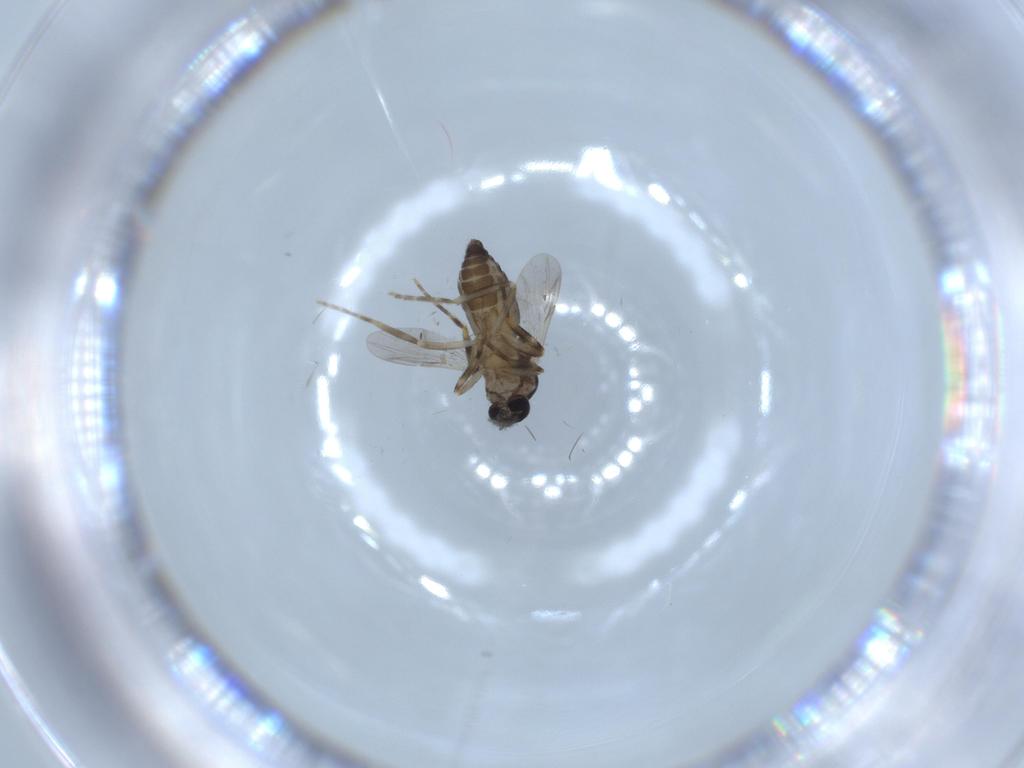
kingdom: Animalia
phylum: Arthropoda
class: Insecta
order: Diptera
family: Ceratopogonidae
